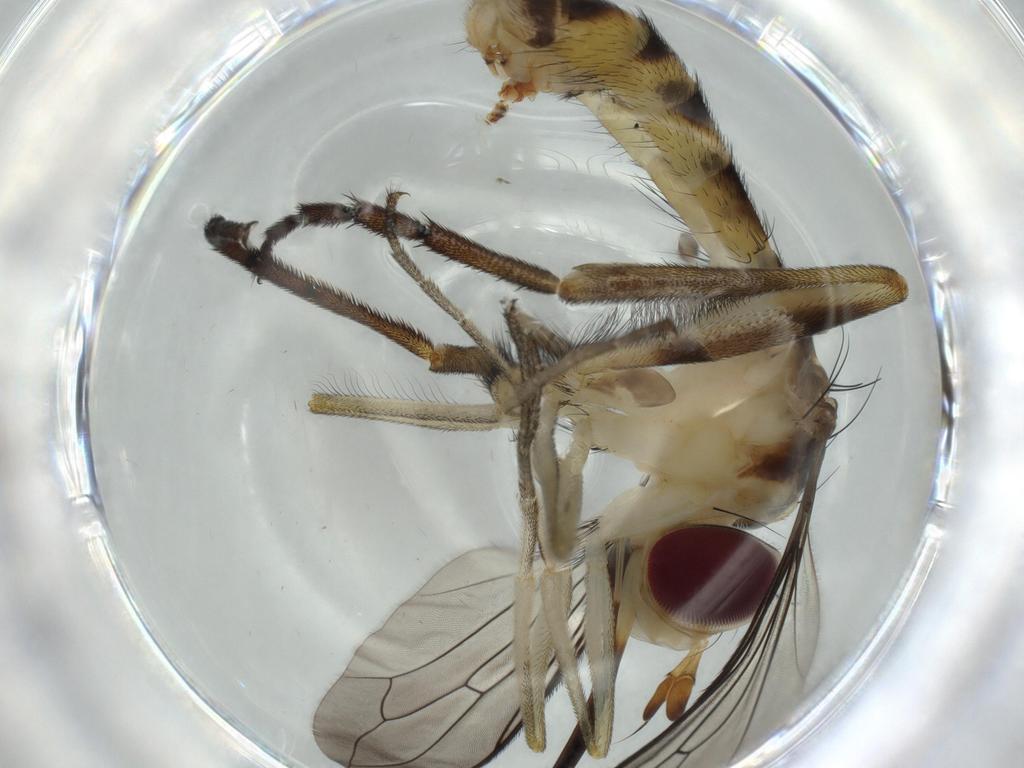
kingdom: Animalia
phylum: Arthropoda
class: Insecta
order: Diptera
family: Conopidae
